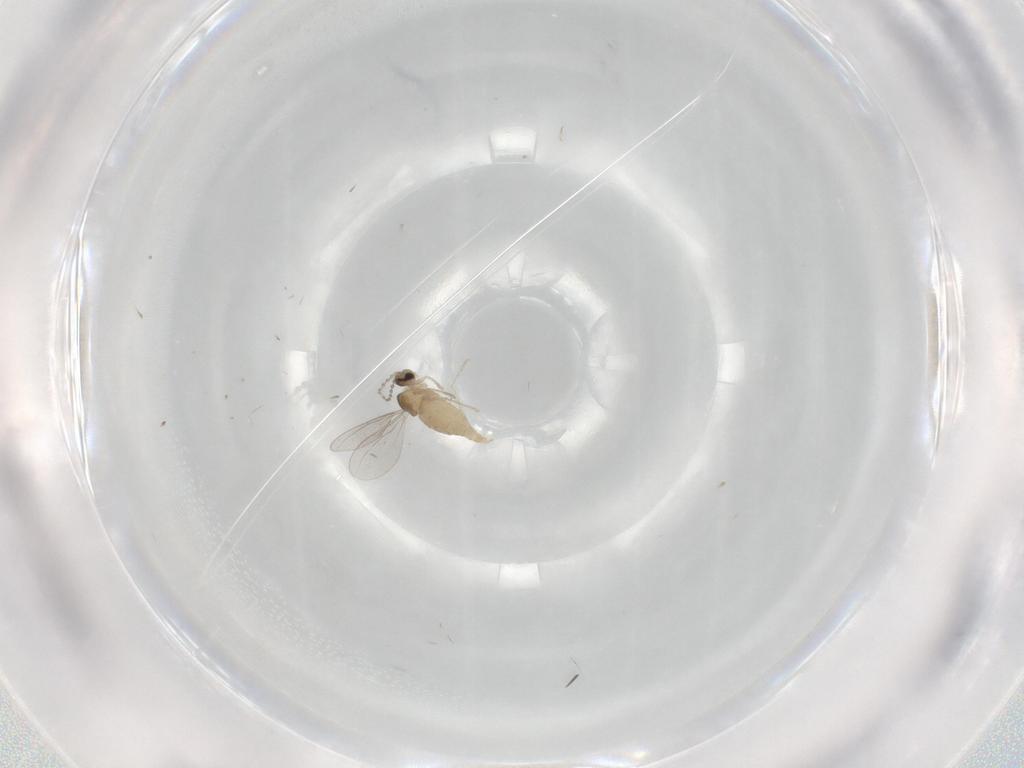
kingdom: Animalia
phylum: Arthropoda
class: Insecta
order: Diptera
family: Cecidomyiidae
